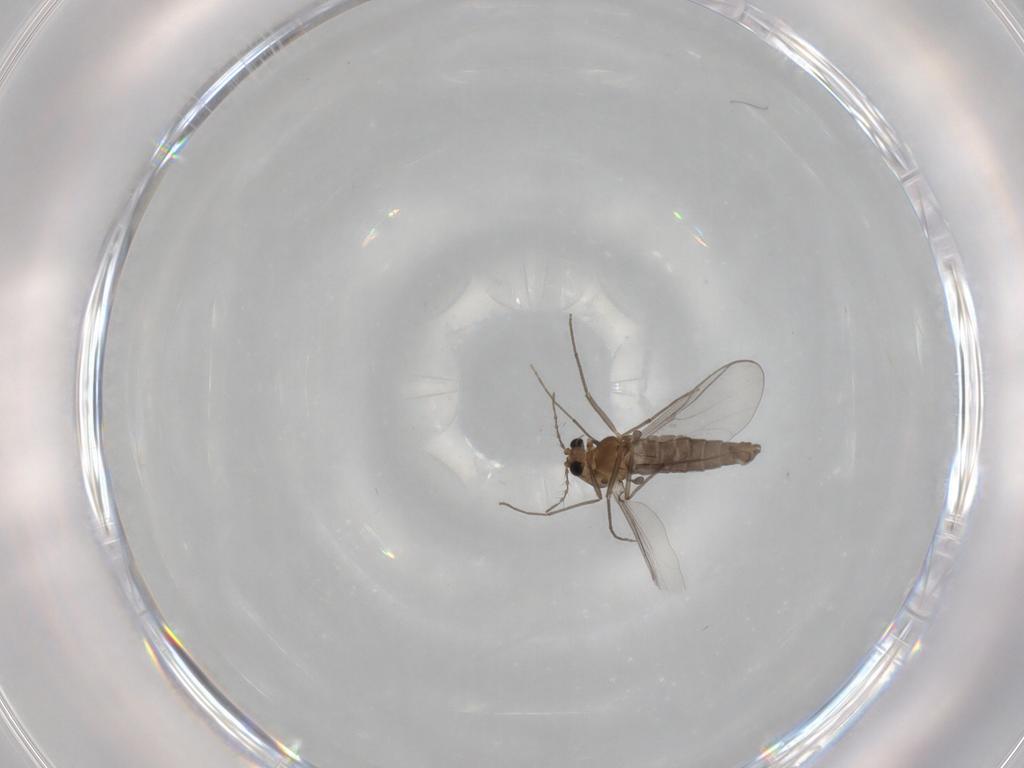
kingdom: Animalia
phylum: Arthropoda
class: Insecta
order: Diptera
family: Chironomidae
